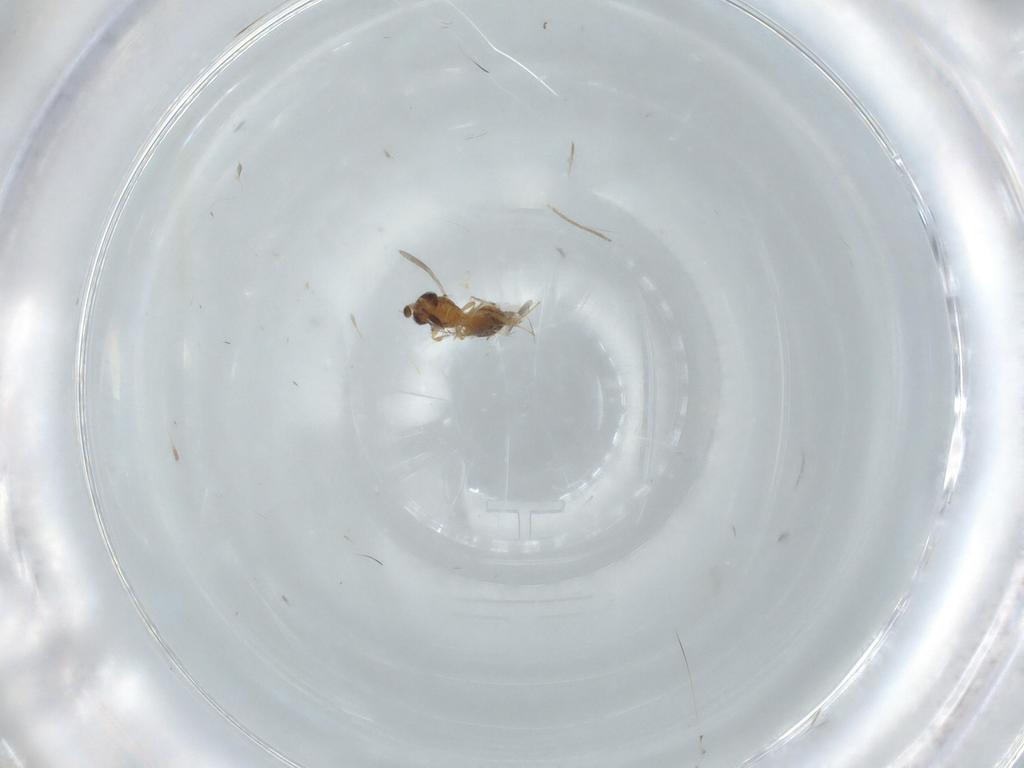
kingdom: Animalia
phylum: Arthropoda
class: Insecta
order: Hymenoptera
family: Scelionidae
